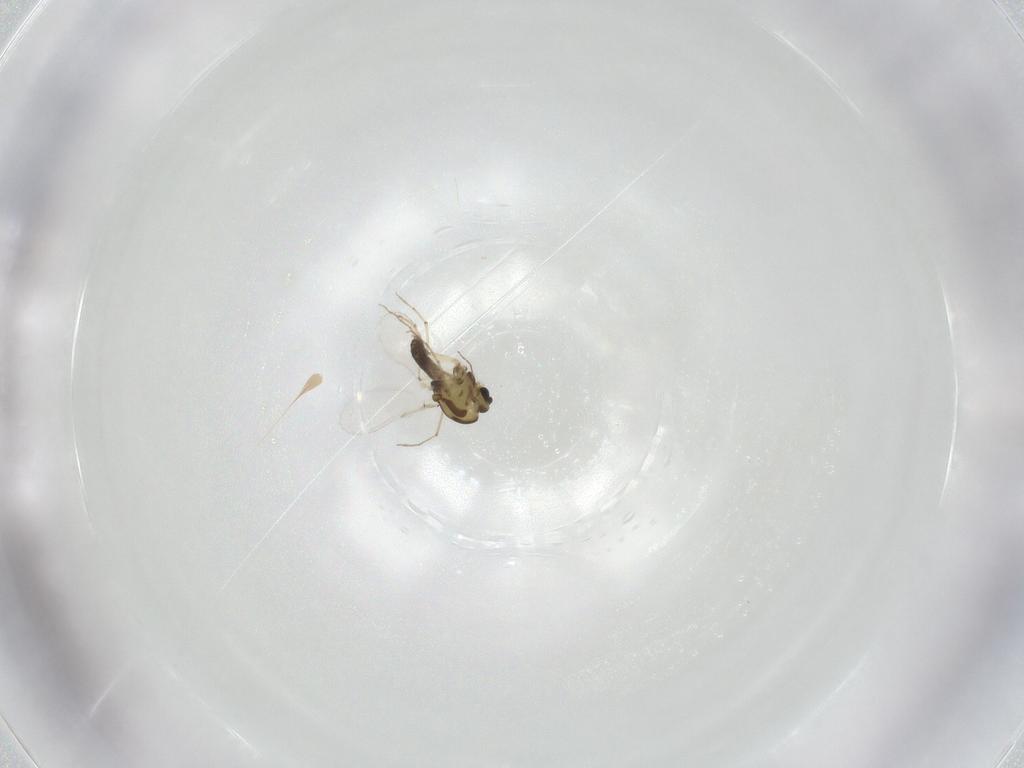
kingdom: Animalia
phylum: Arthropoda
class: Insecta
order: Diptera
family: Chironomidae
